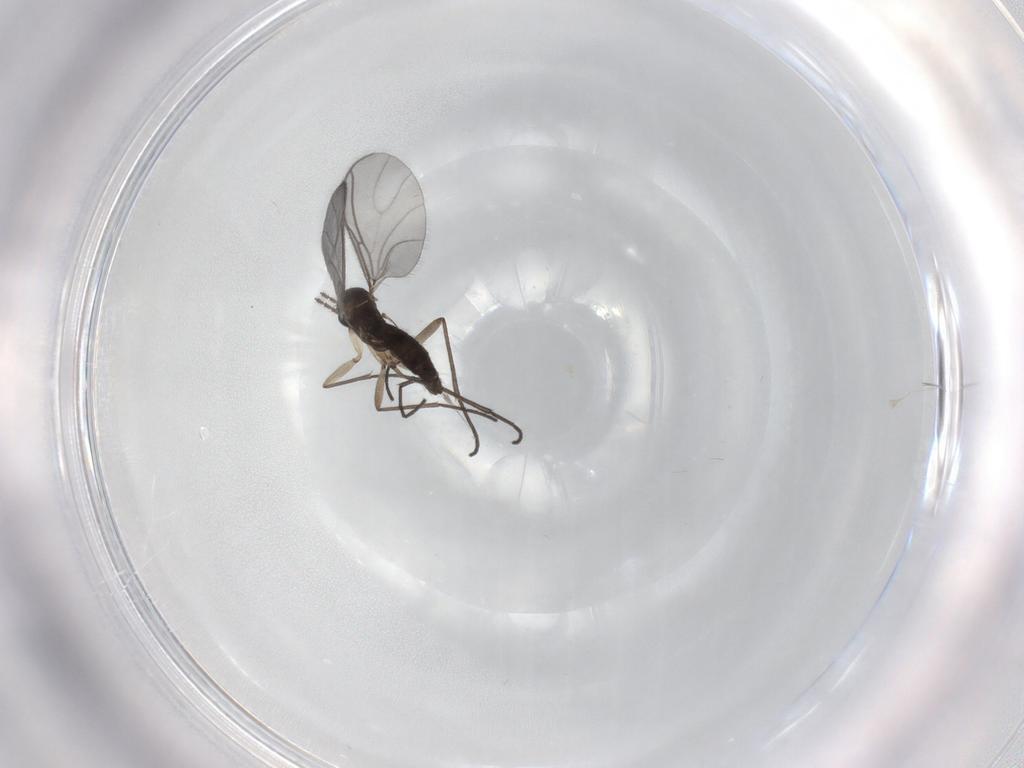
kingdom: Animalia
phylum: Arthropoda
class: Insecta
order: Diptera
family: Sciaridae
